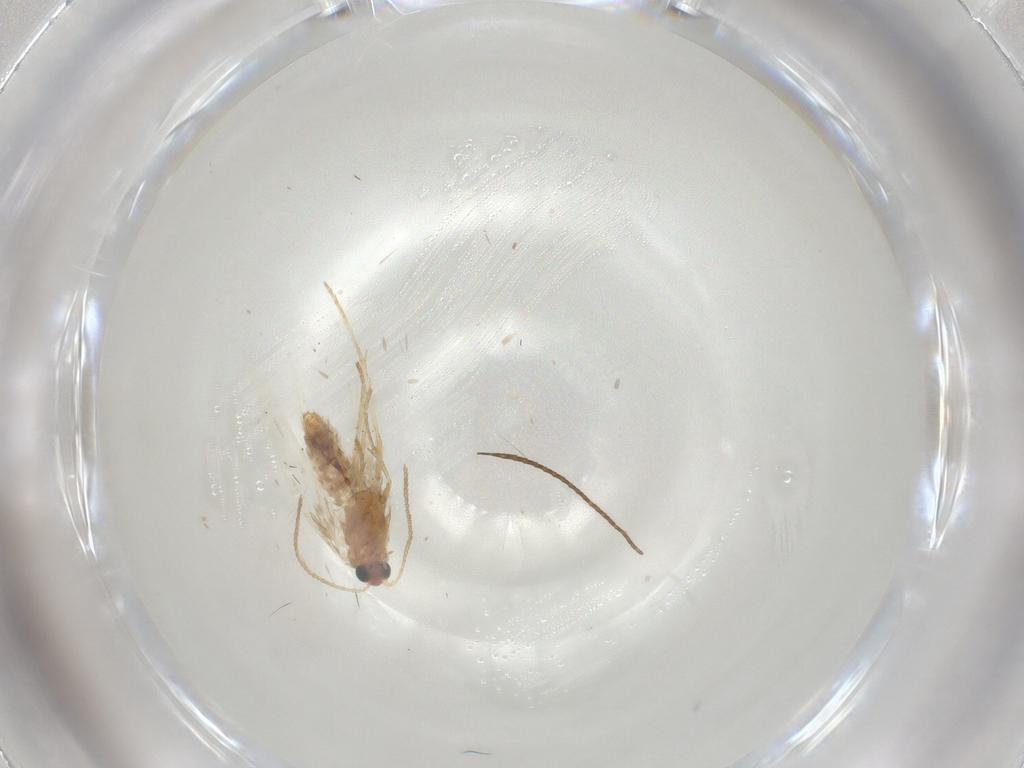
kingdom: Animalia
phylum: Arthropoda
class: Insecta
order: Lepidoptera
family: Nepticulidae
